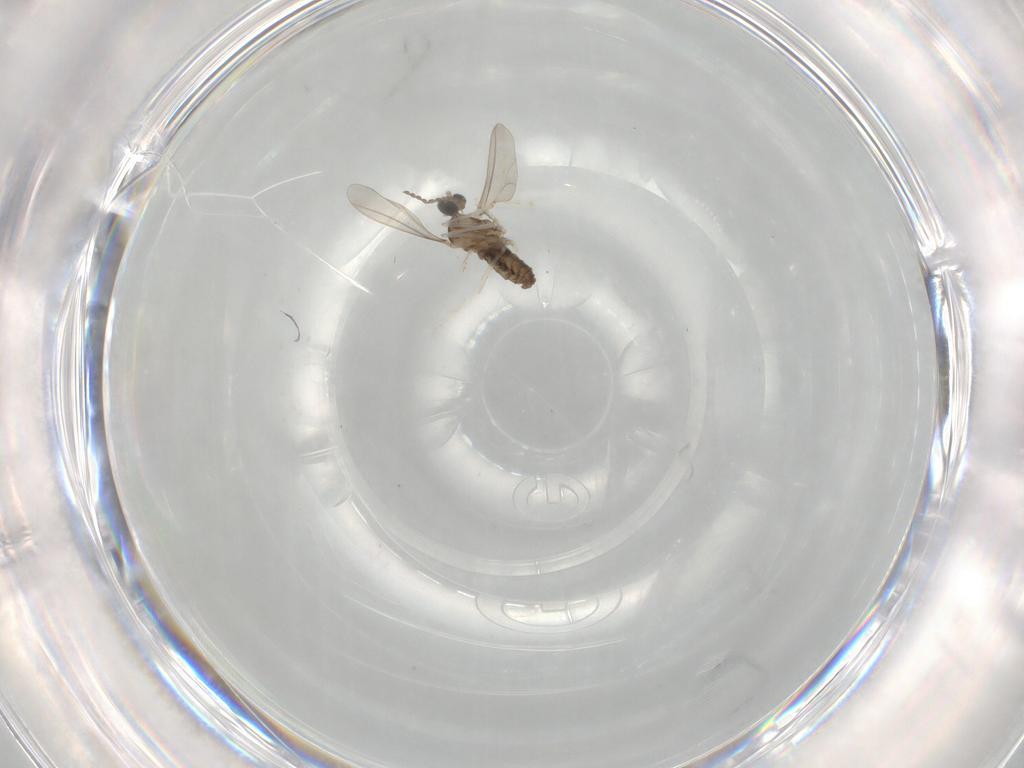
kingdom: Animalia
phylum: Arthropoda
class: Insecta
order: Diptera
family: Cecidomyiidae
